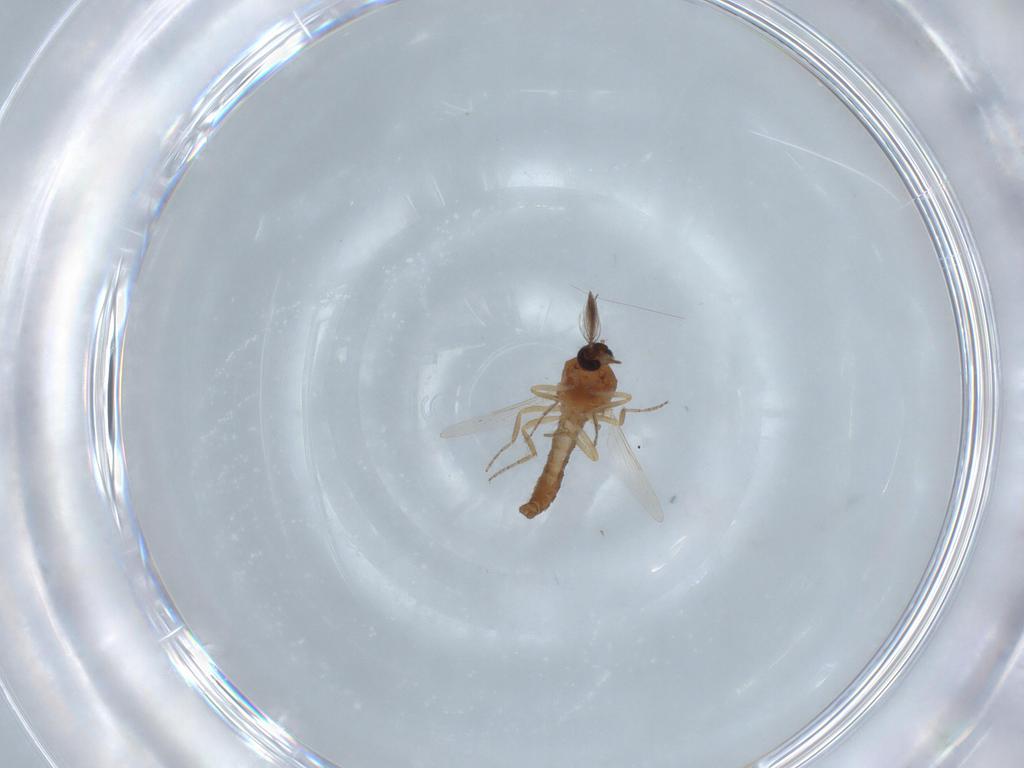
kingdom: Animalia
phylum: Arthropoda
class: Insecta
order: Diptera
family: Ceratopogonidae
